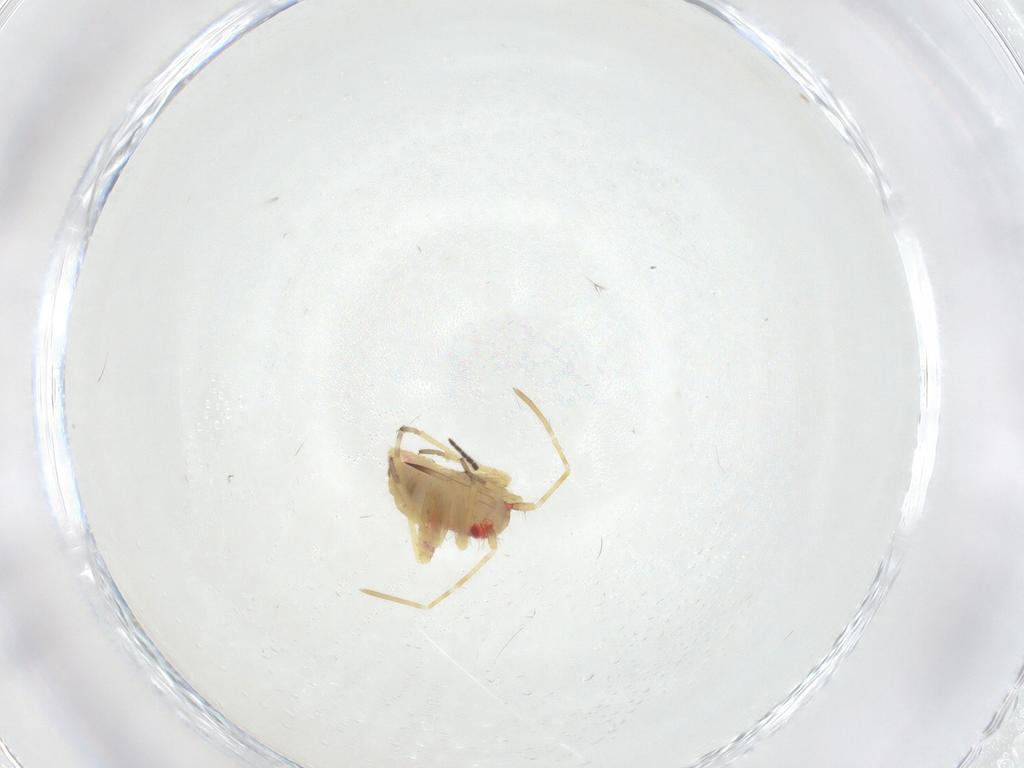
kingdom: Animalia
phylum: Arthropoda
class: Insecta
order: Hemiptera
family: Miridae
